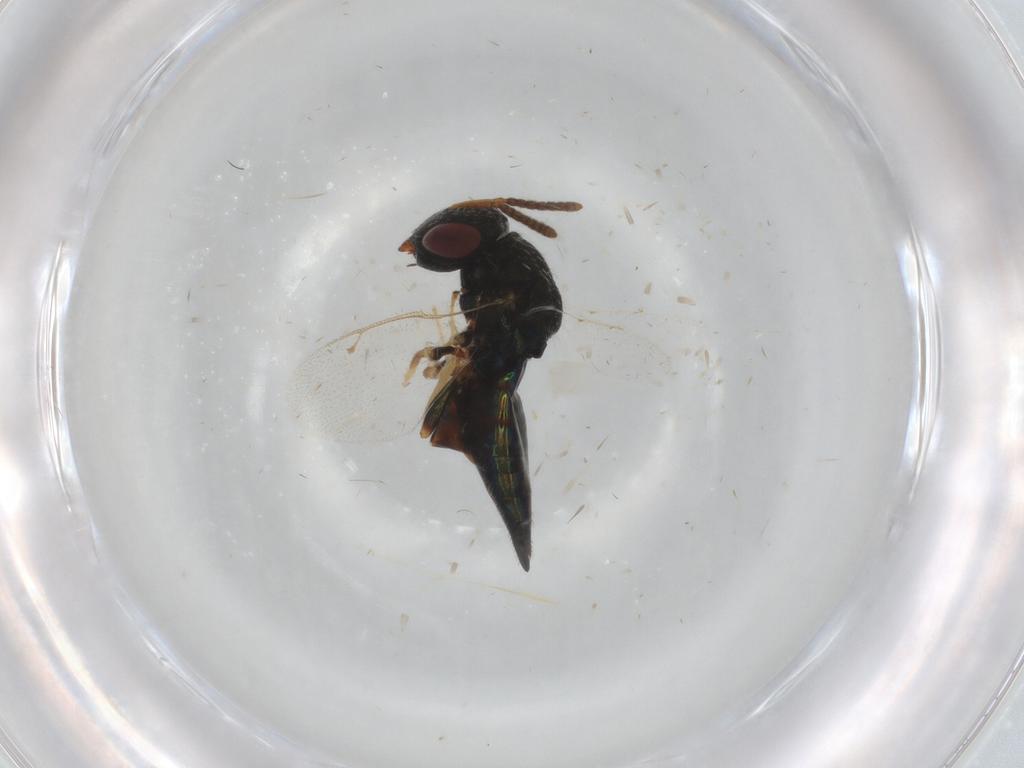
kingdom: Animalia
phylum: Arthropoda
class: Insecta
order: Hymenoptera
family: Pteromalidae
